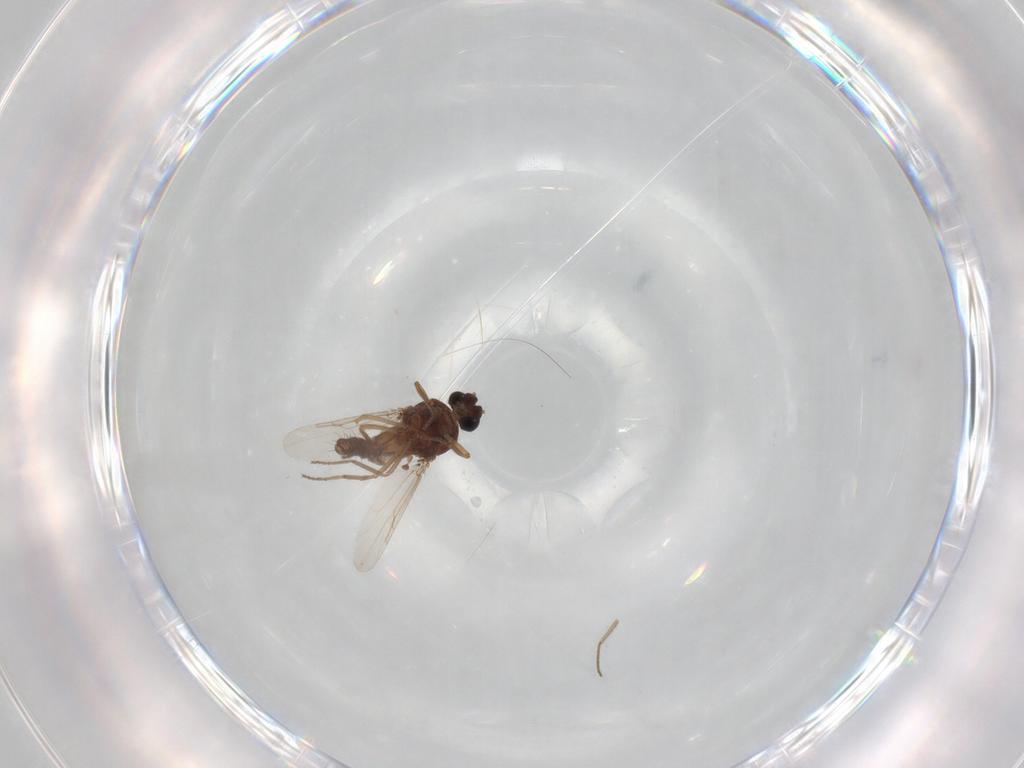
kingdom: Animalia
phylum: Arthropoda
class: Insecta
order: Diptera
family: Ceratopogonidae
